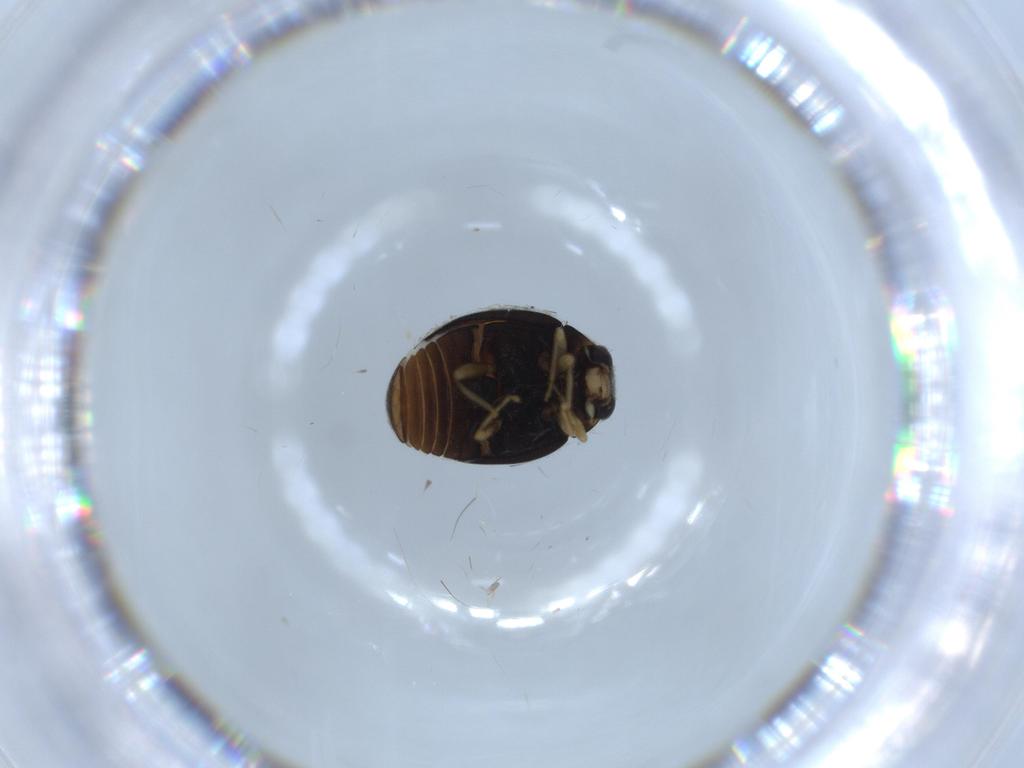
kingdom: Animalia
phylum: Arthropoda
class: Insecta
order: Coleoptera
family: Coccinellidae
